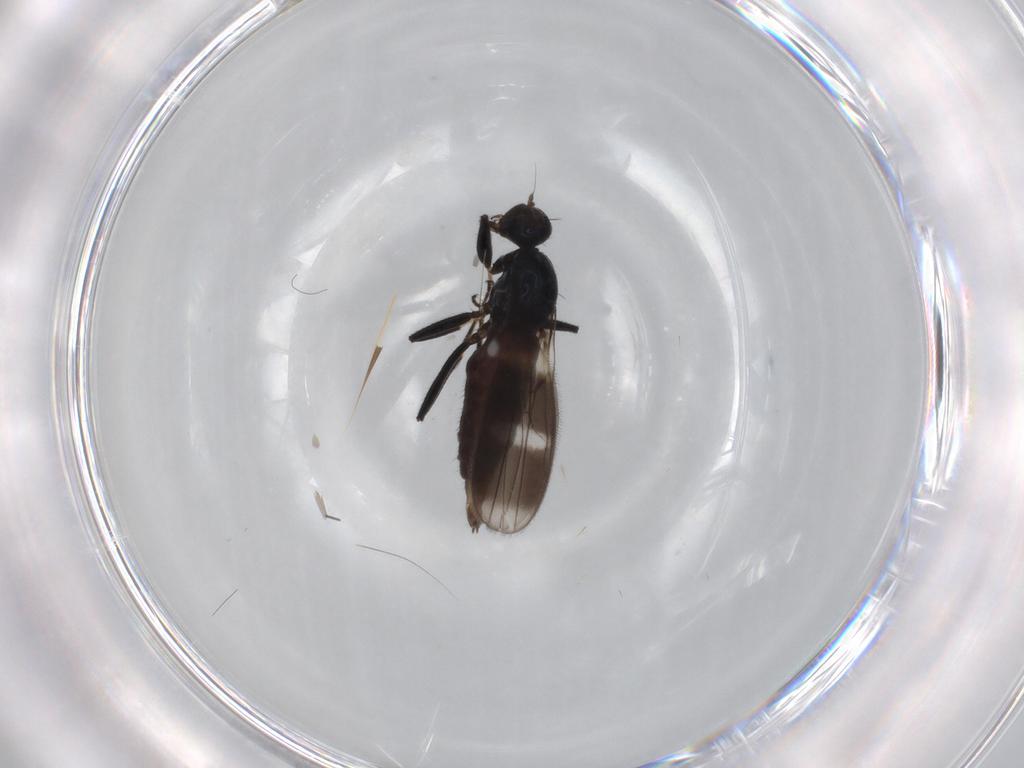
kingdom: Animalia
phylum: Arthropoda
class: Insecta
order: Diptera
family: Hybotidae
